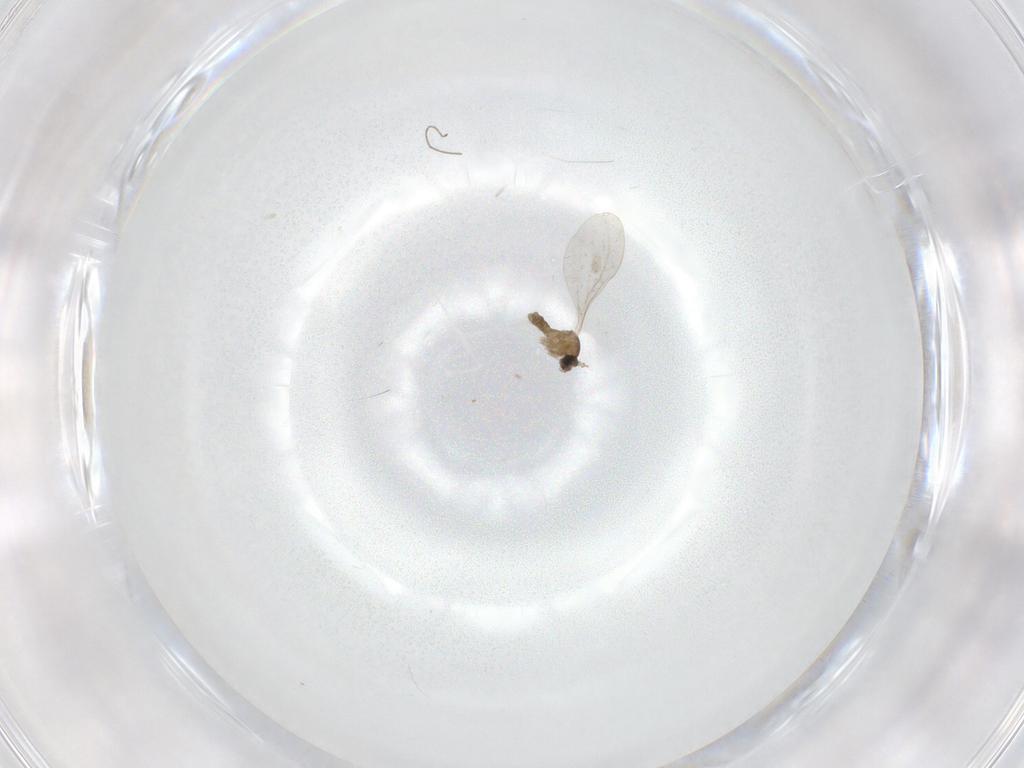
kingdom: Animalia
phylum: Arthropoda
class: Insecta
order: Diptera
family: Cecidomyiidae
